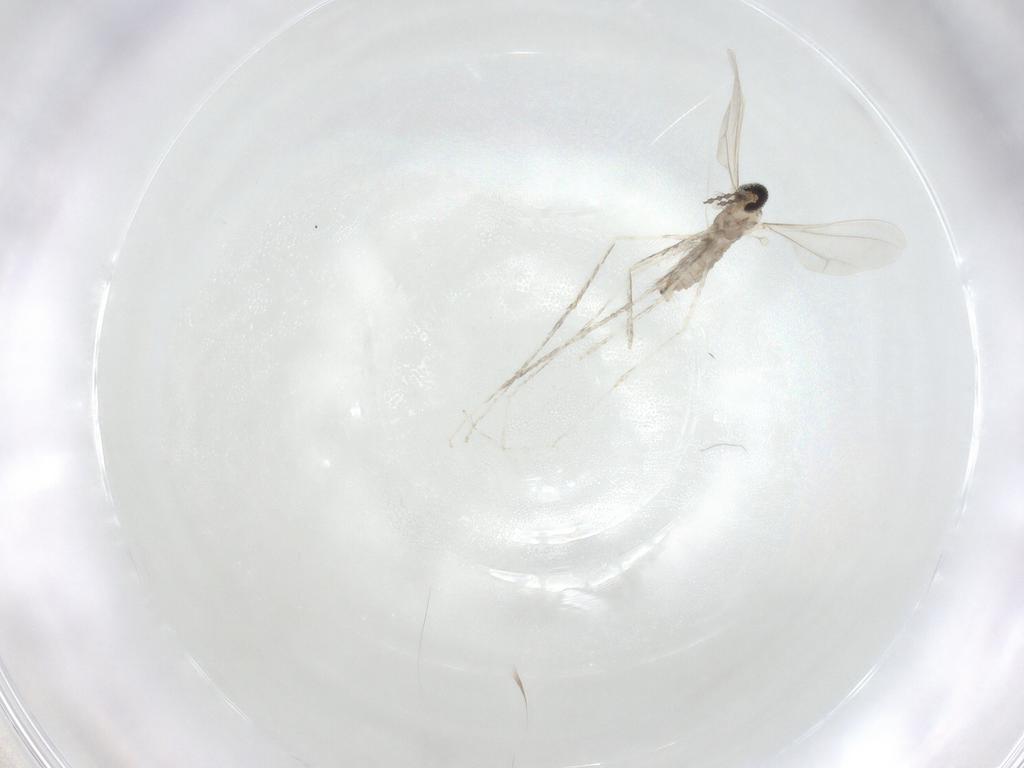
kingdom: Animalia
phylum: Arthropoda
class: Insecta
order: Diptera
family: Cecidomyiidae
